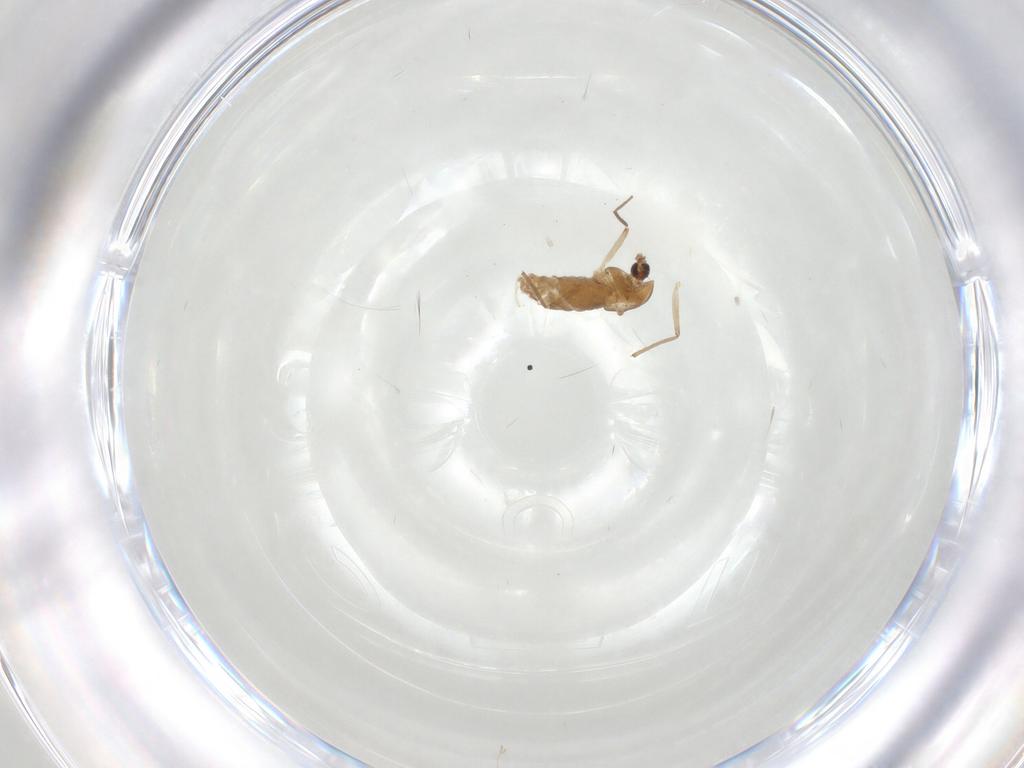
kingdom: Animalia
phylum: Arthropoda
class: Insecta
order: Diptera
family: Chironomidae
